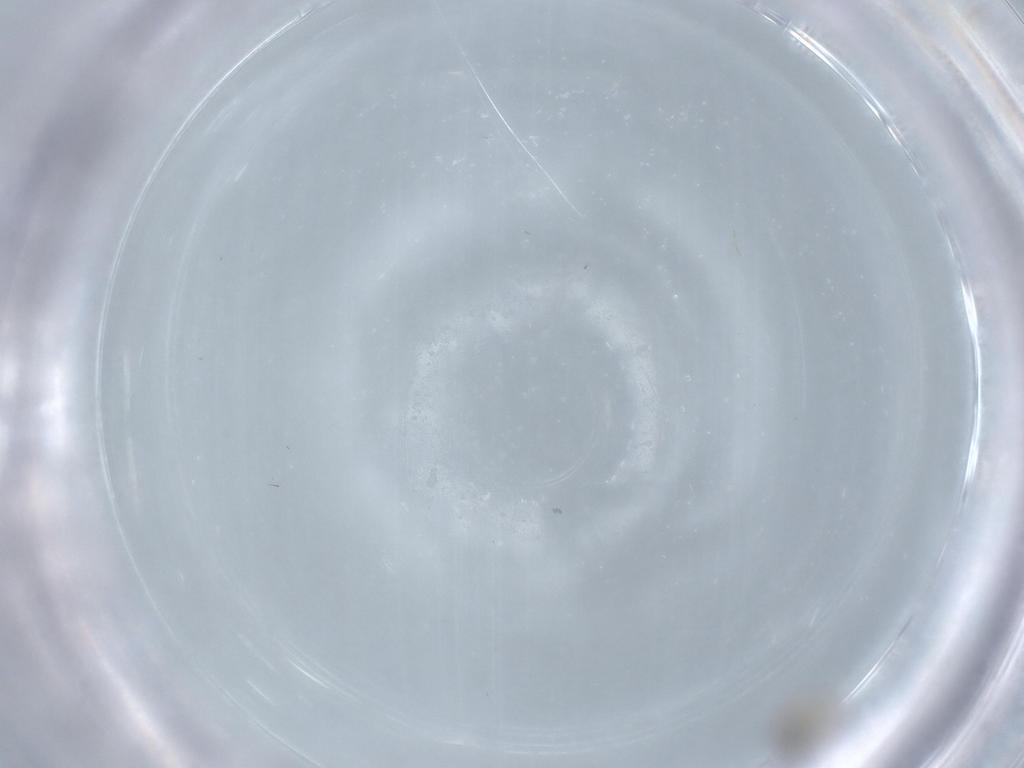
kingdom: Animalia
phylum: Arthropoda
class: Insecta
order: Diptera
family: Cecidomyiidae
